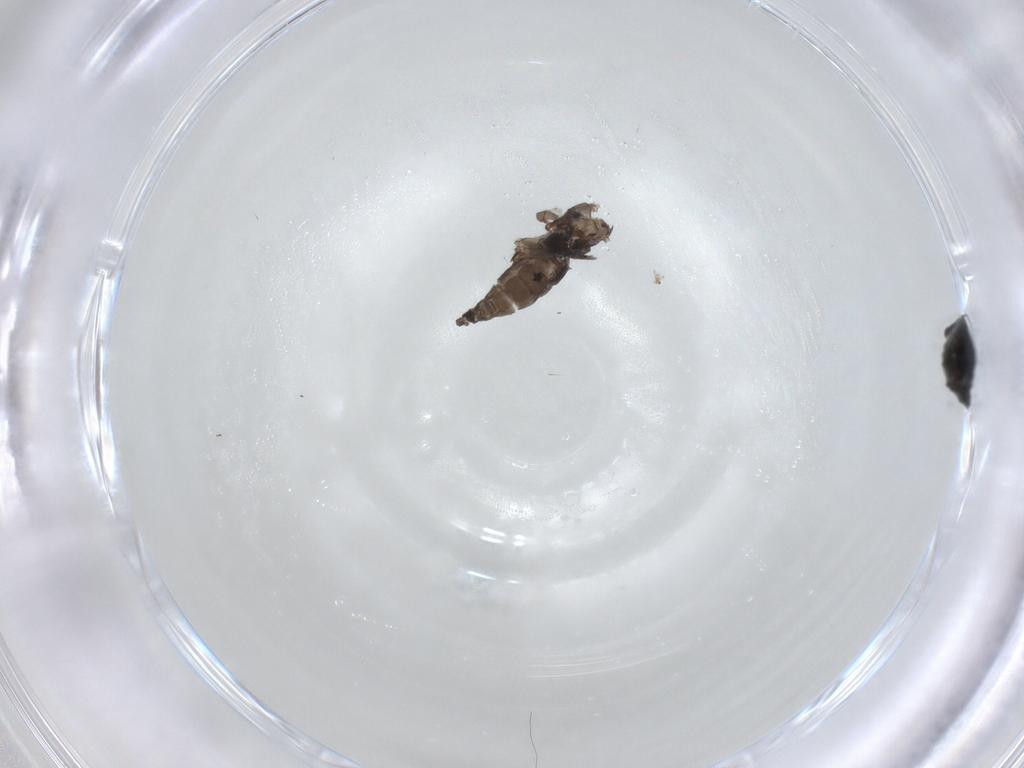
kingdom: Animalia
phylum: Arthropoda
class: Insecta
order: Diptera
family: Sciaridae
